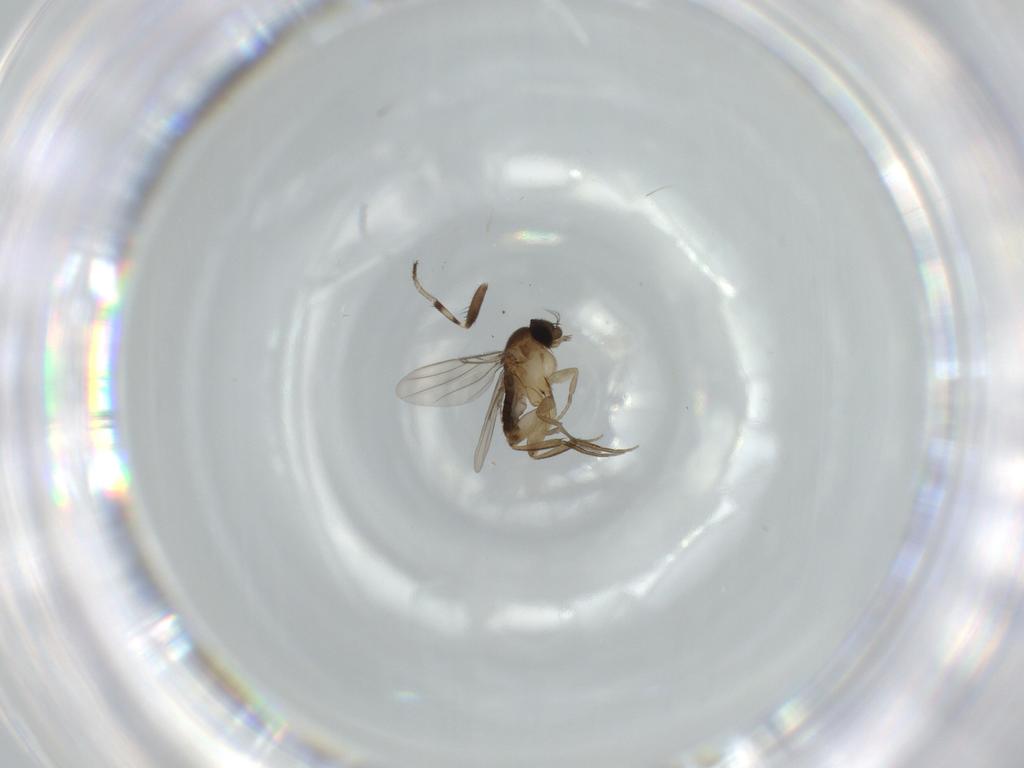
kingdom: Animalia
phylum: Arthropoda
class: Insecta
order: Diptera
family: Phoridae
